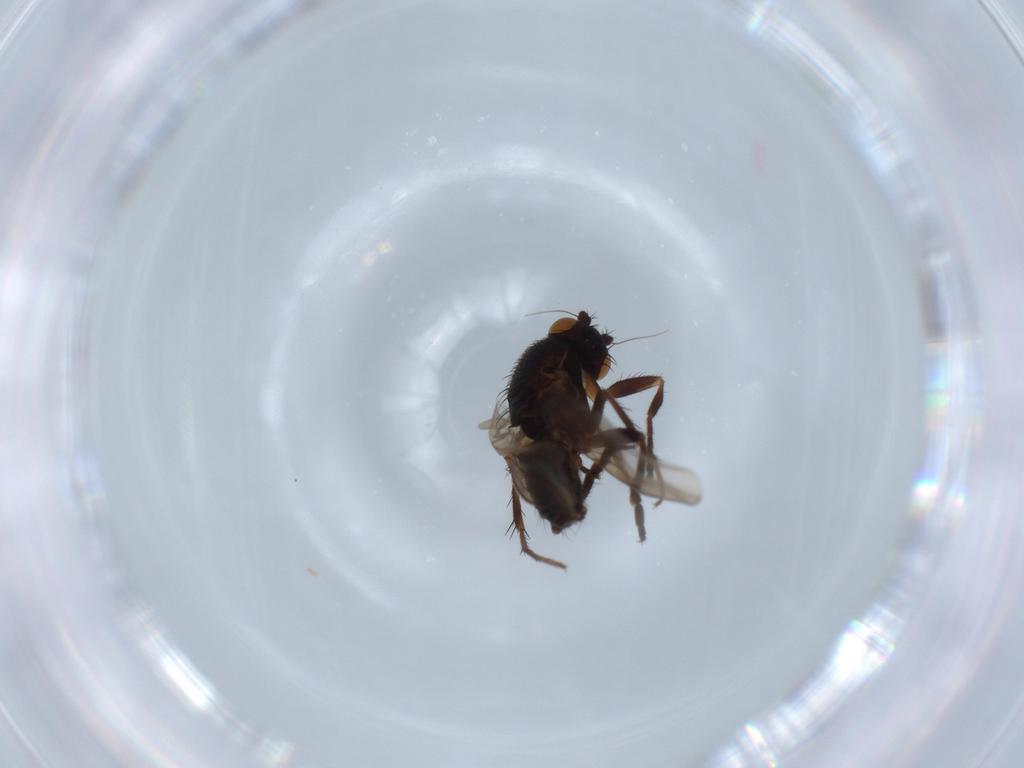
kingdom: Animalia
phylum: Arthropoda
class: Insecta
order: Diptera
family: Sphaeroceridae
